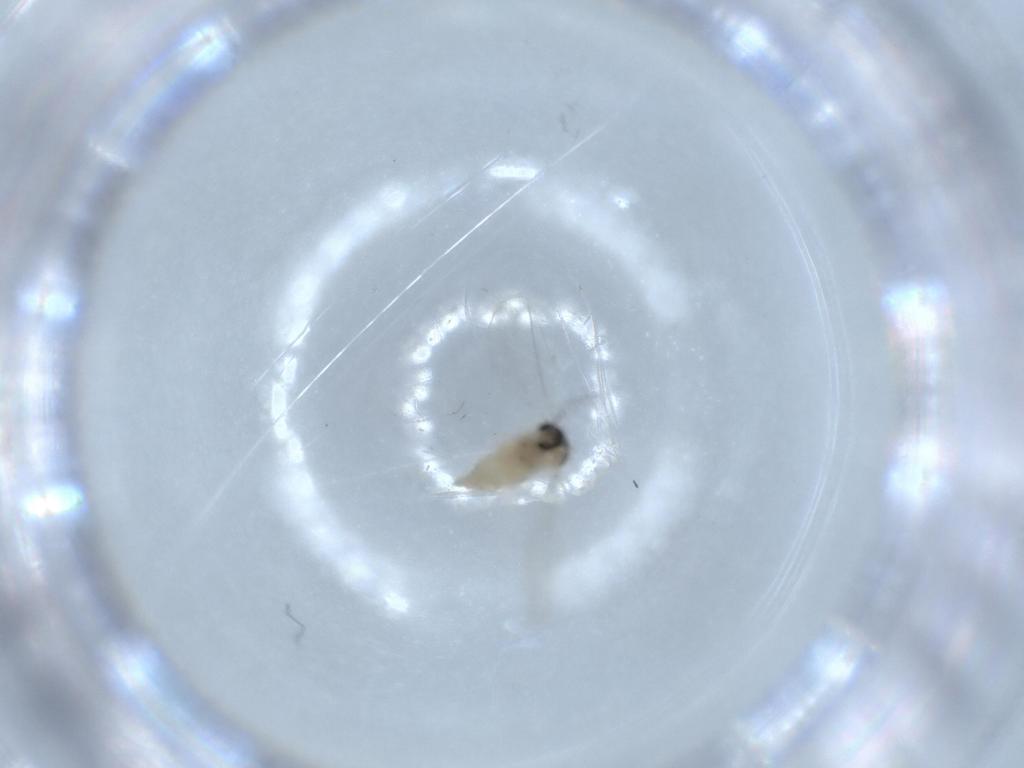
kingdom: Animalia
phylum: Arthropoda
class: Insecta
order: Diptera
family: Cecidomyiidae
